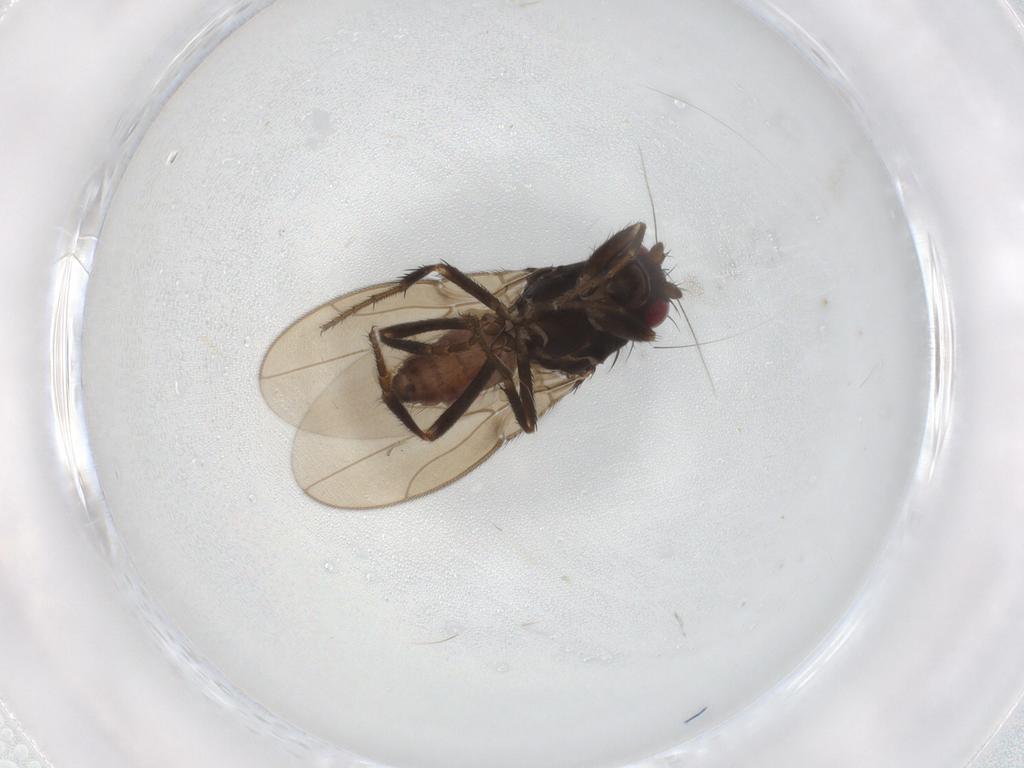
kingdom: Animalia
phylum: Arthropoda
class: Insecta
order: Diptera
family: Sphaeroceridae
